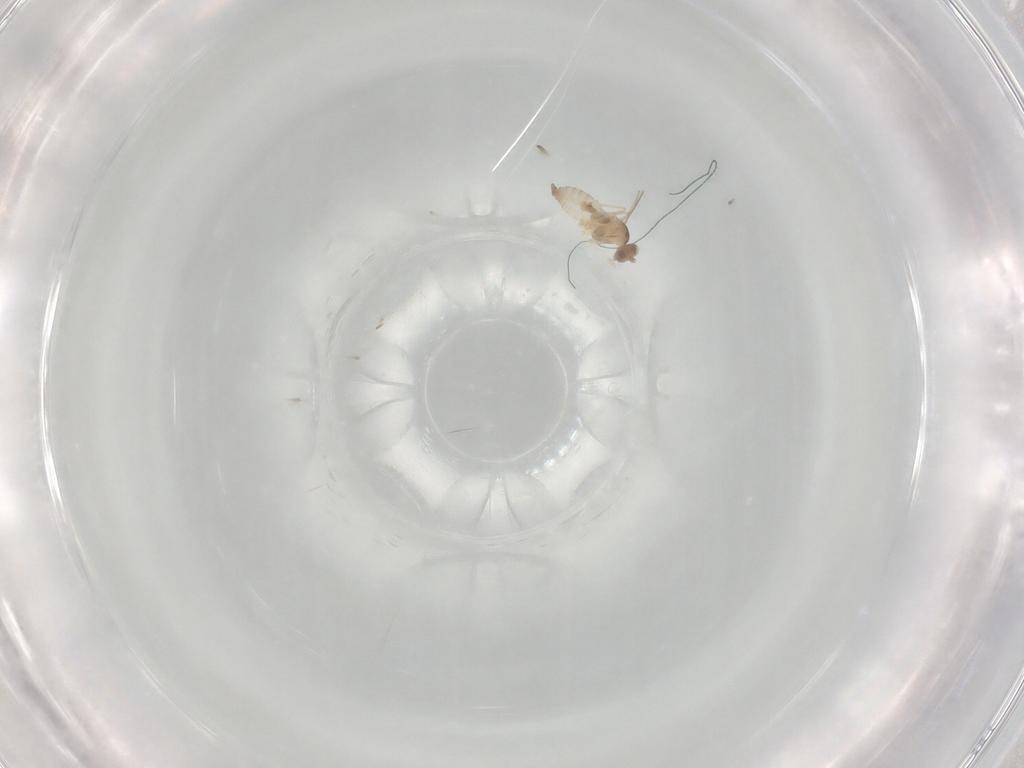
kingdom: Animalia
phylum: Arthropoda
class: Insecta
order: Diptera
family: Cecidomyiidae
